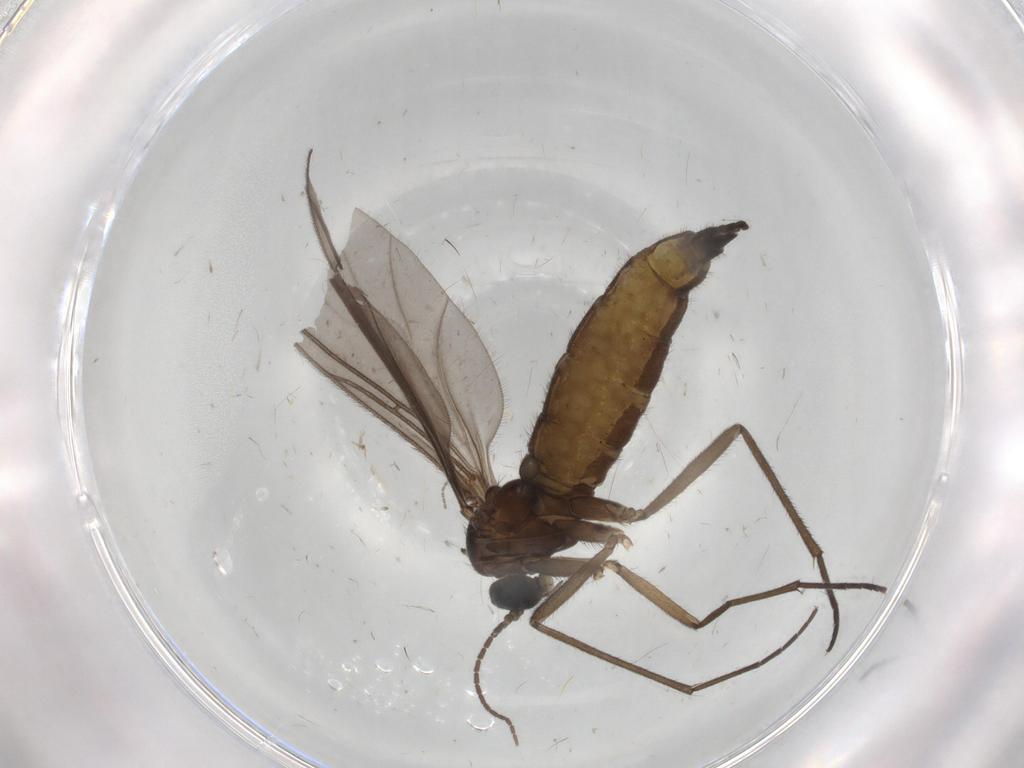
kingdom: Animalia
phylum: Arthropoda
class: Insecta
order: Diptera
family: Sciaridae
